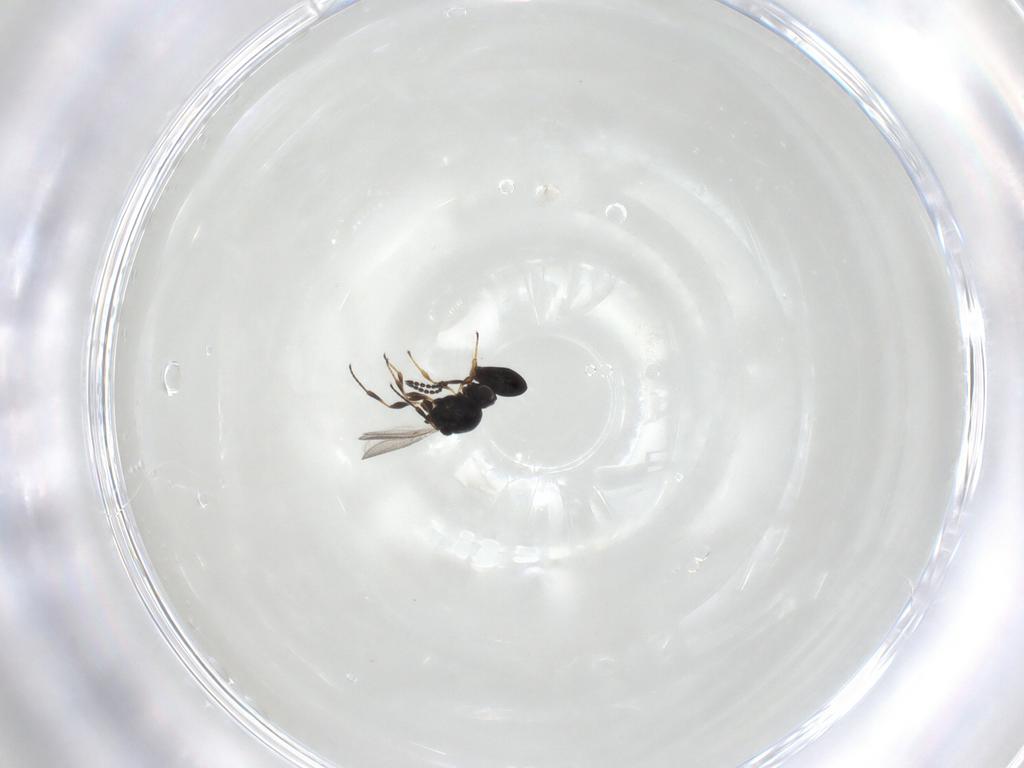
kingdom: Animalia
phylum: Arthropoda
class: Insecta
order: Hymenoptera
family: Platygastridae
